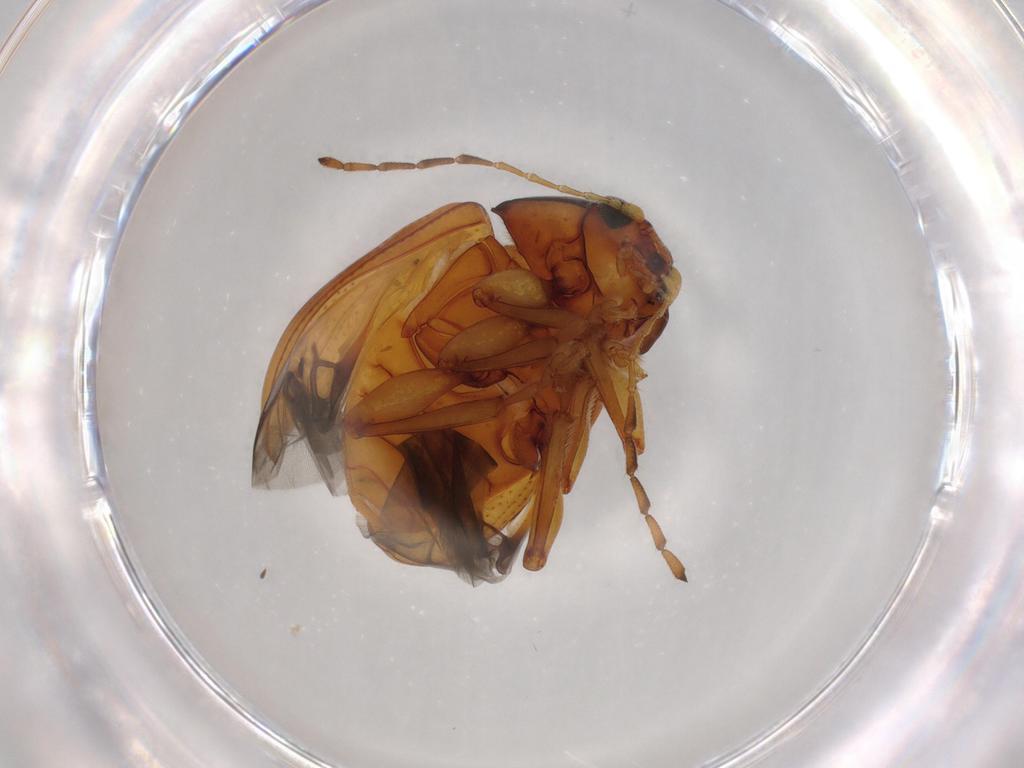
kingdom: Animalia
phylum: Arthropoda
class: Insecta
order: Coleoptera
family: Chrysomelidae
